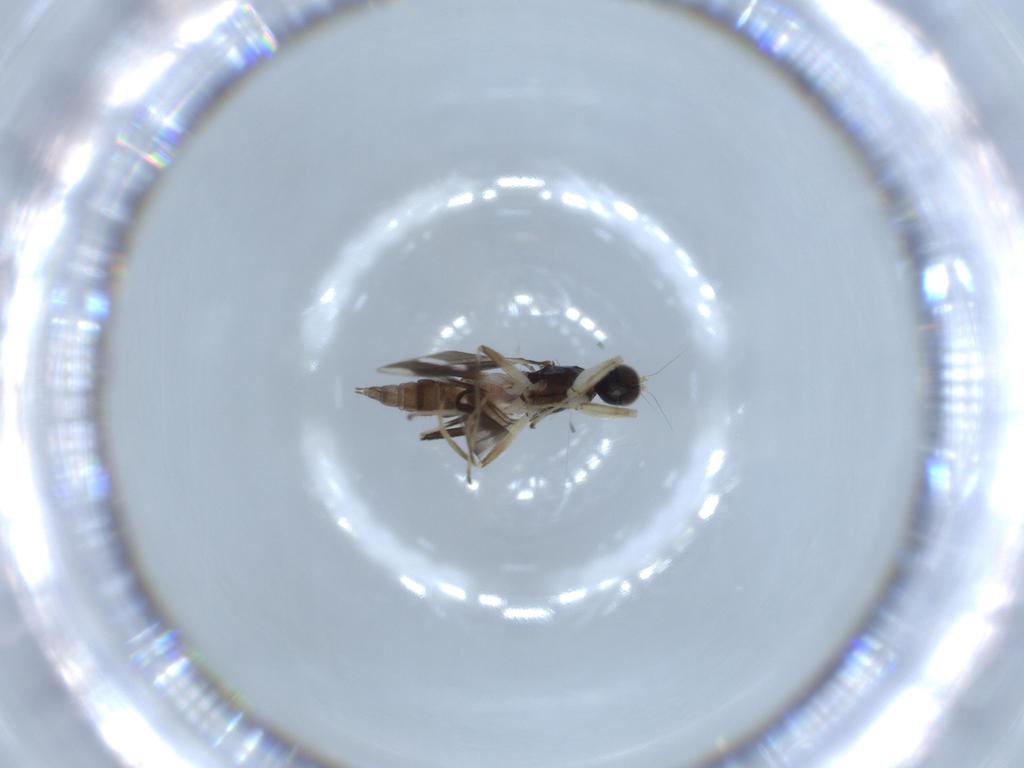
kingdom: Animalia
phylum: Arthropoda
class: Insecta
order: Diptera
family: Hybotidae
